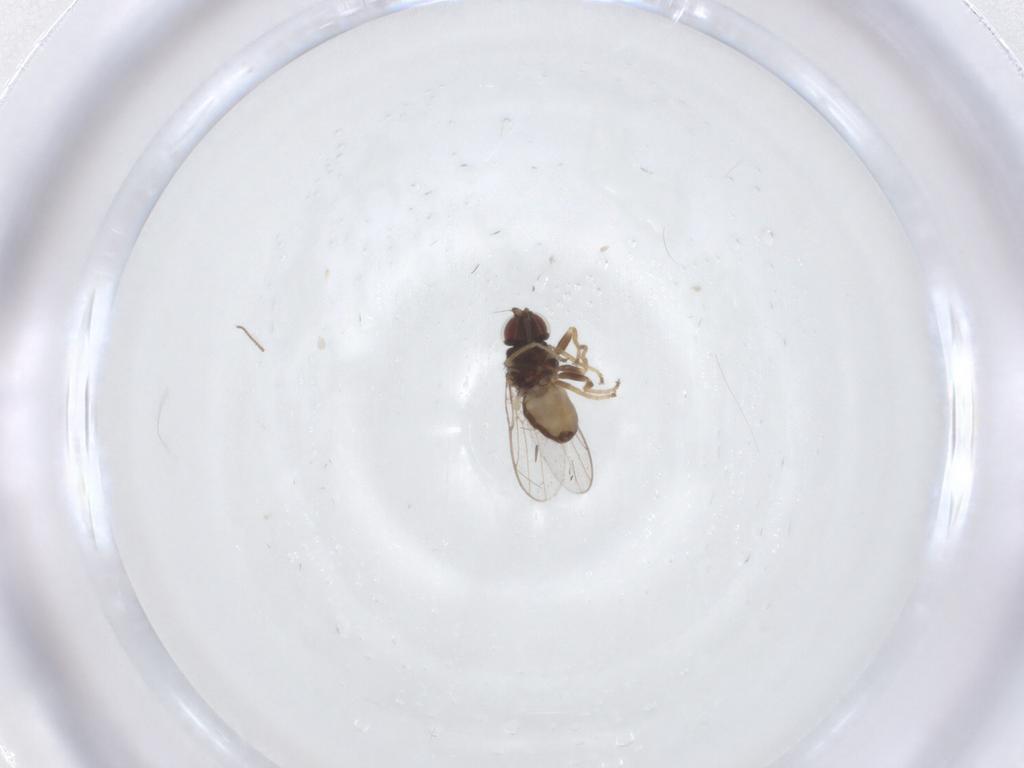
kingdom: Animalia
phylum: Arthropoda
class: Insecta
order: Diptera
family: Chloropidae
